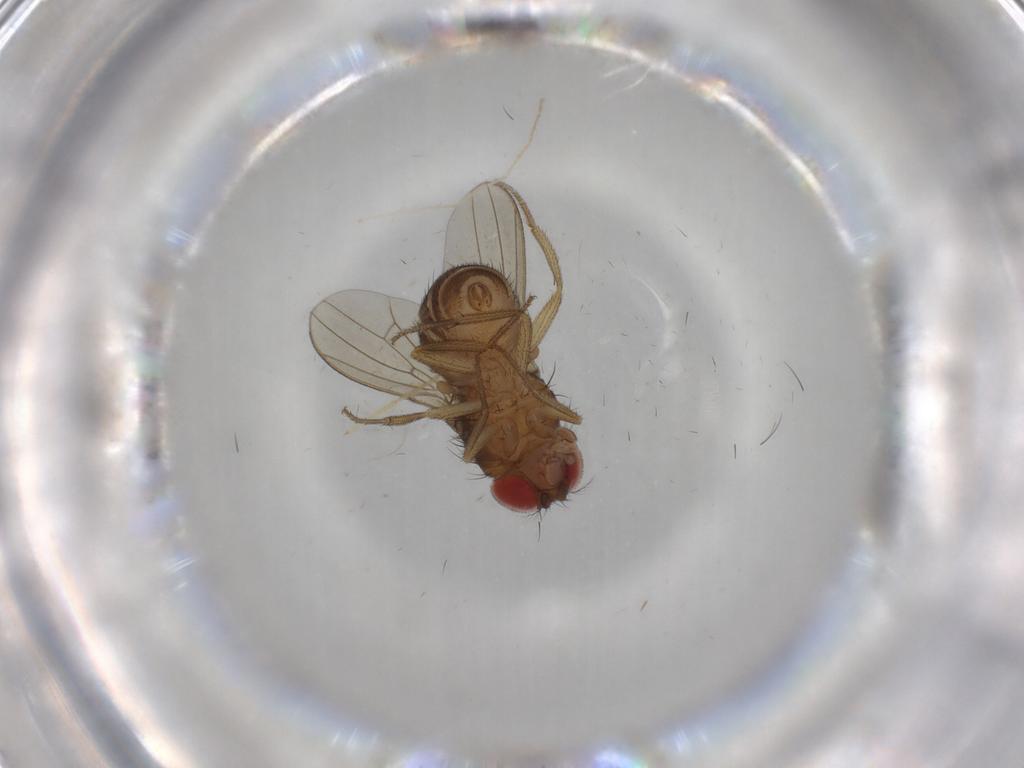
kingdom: Animalia
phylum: Arthropoda
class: Insecta
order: Diptera
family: Drosophilidae
